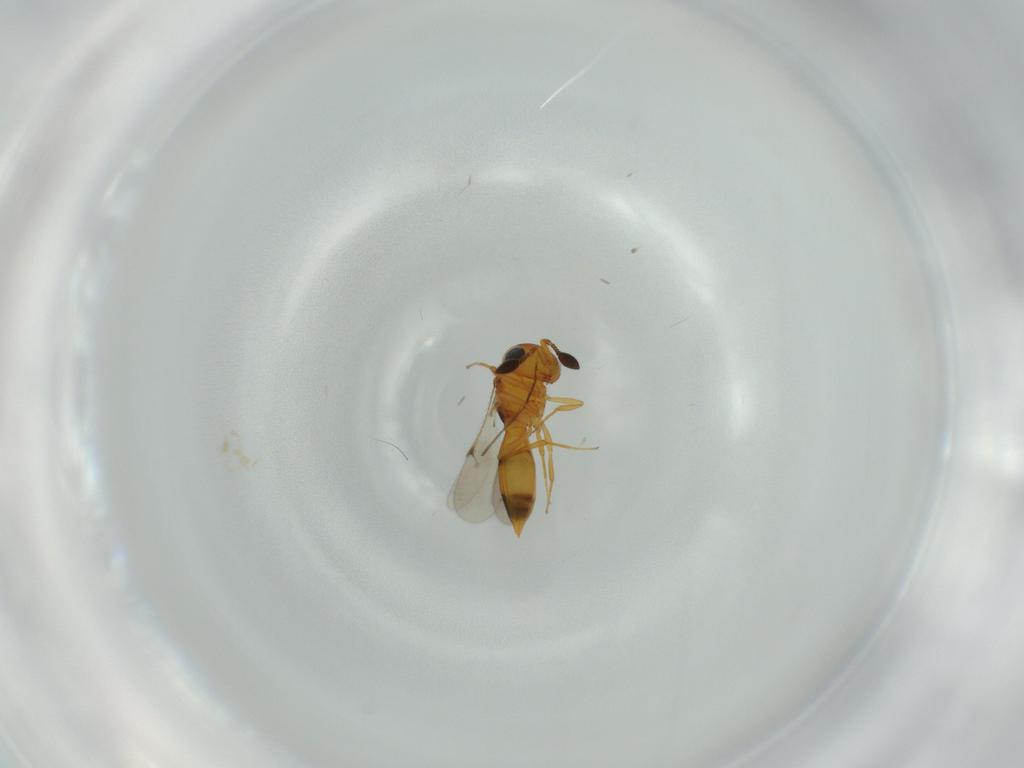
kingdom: Animalia
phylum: Arthropoda
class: Insecta
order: Hymenoptera
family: Scelionidae
